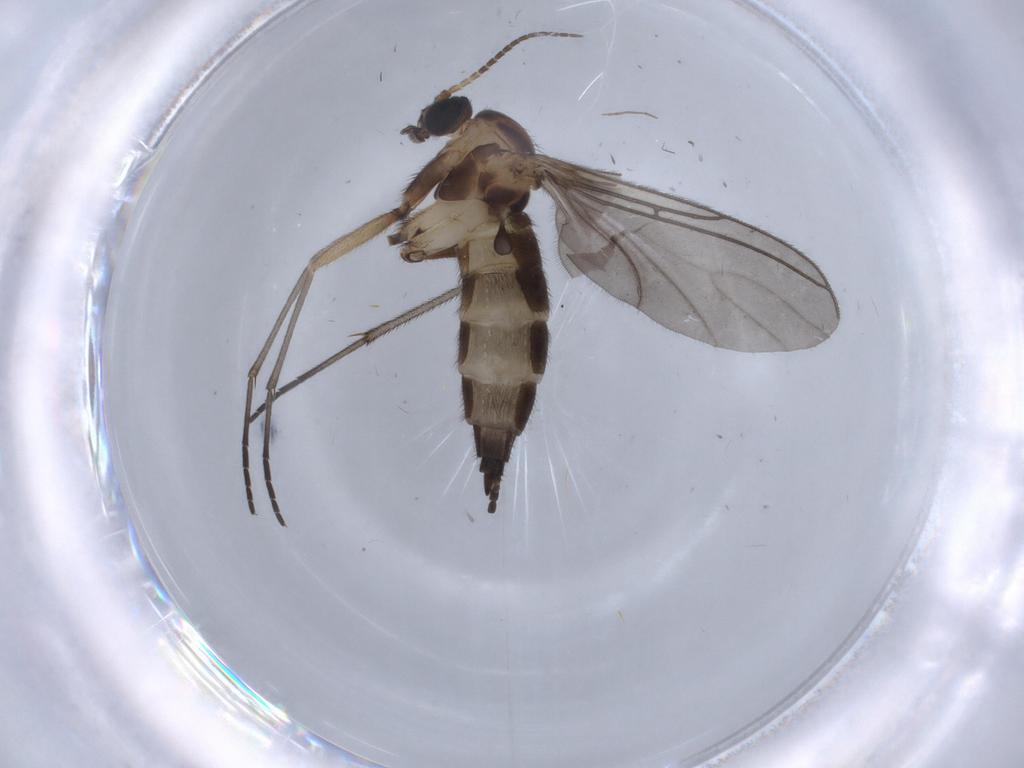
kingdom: Animalia
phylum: Arthropoda
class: Insecta
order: Diptera
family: Sciaridae
